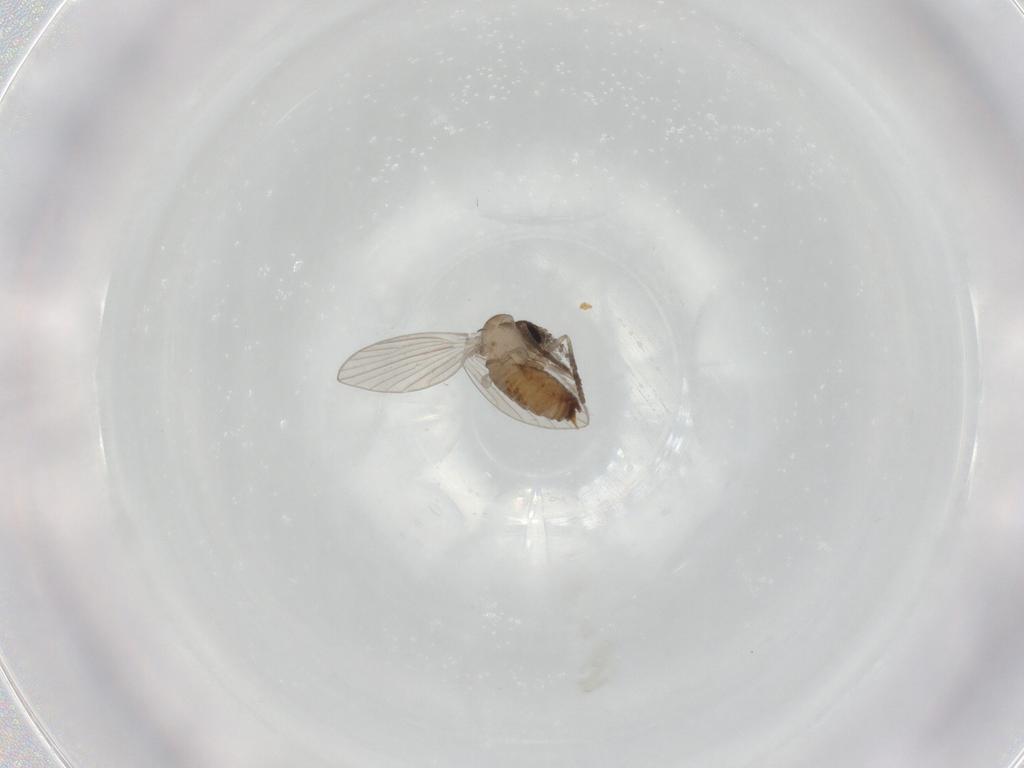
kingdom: Animalia
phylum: Arthropoda
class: Insecta
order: Diptera
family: Psychodidae
